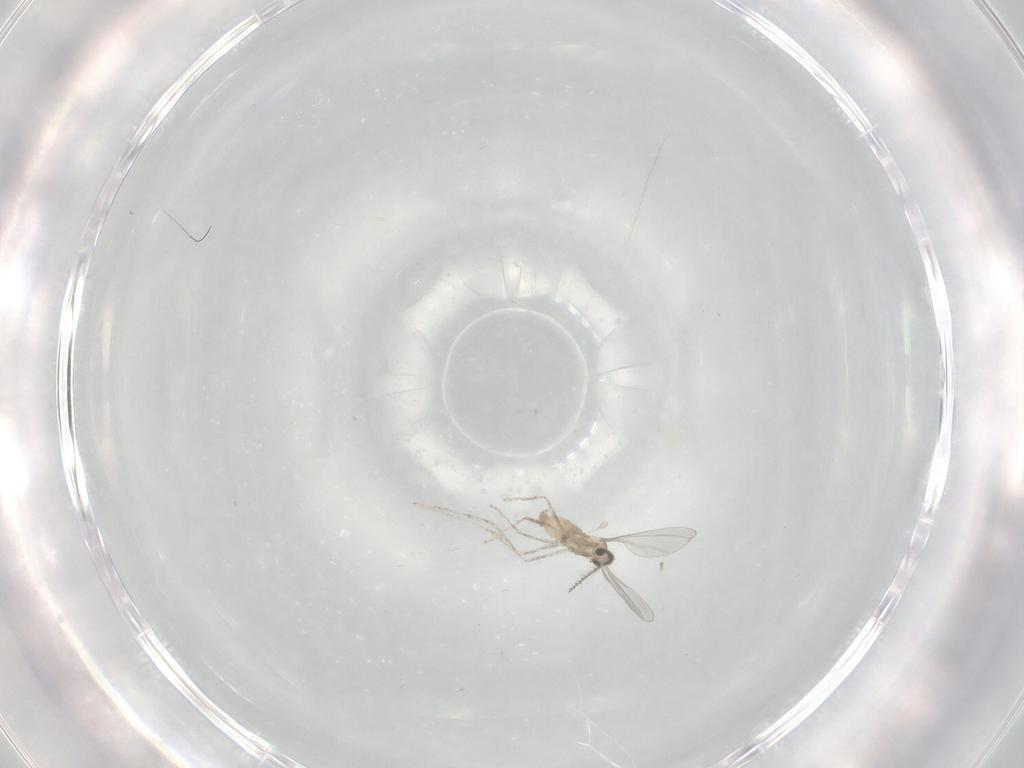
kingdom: Animalia
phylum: Arthropoda
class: Insecta
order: Diptera
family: Cecidomyiidae
